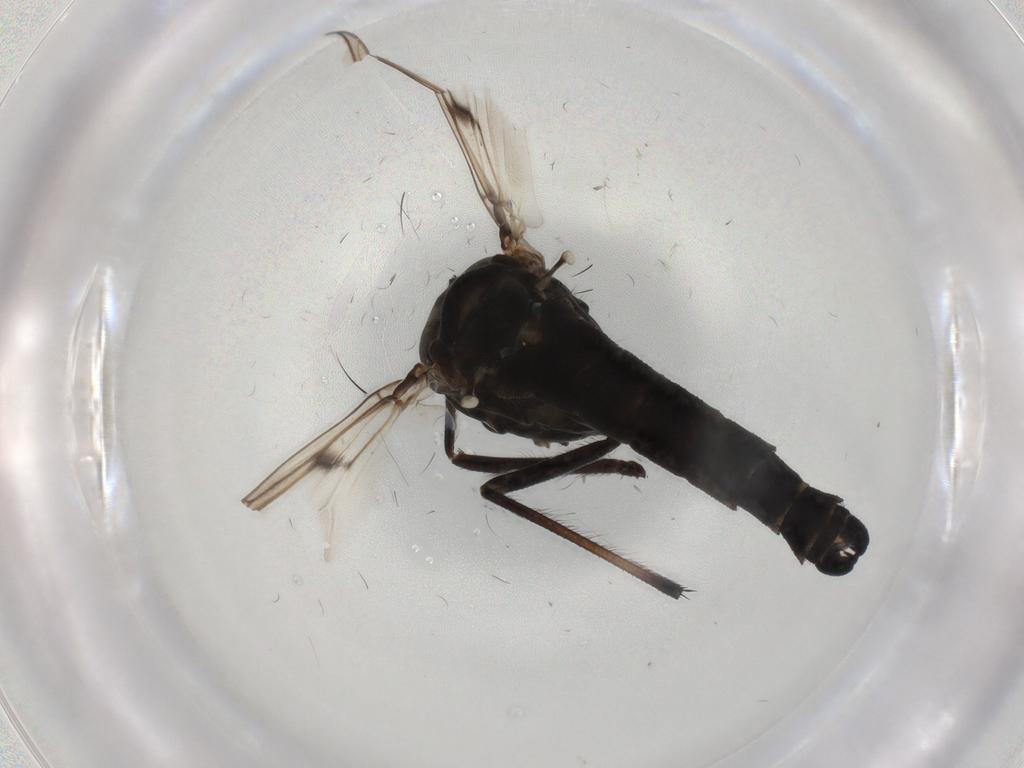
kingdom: Animalia
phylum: Arthropoda
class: Insecta
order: Diptera
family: Chironomidae
